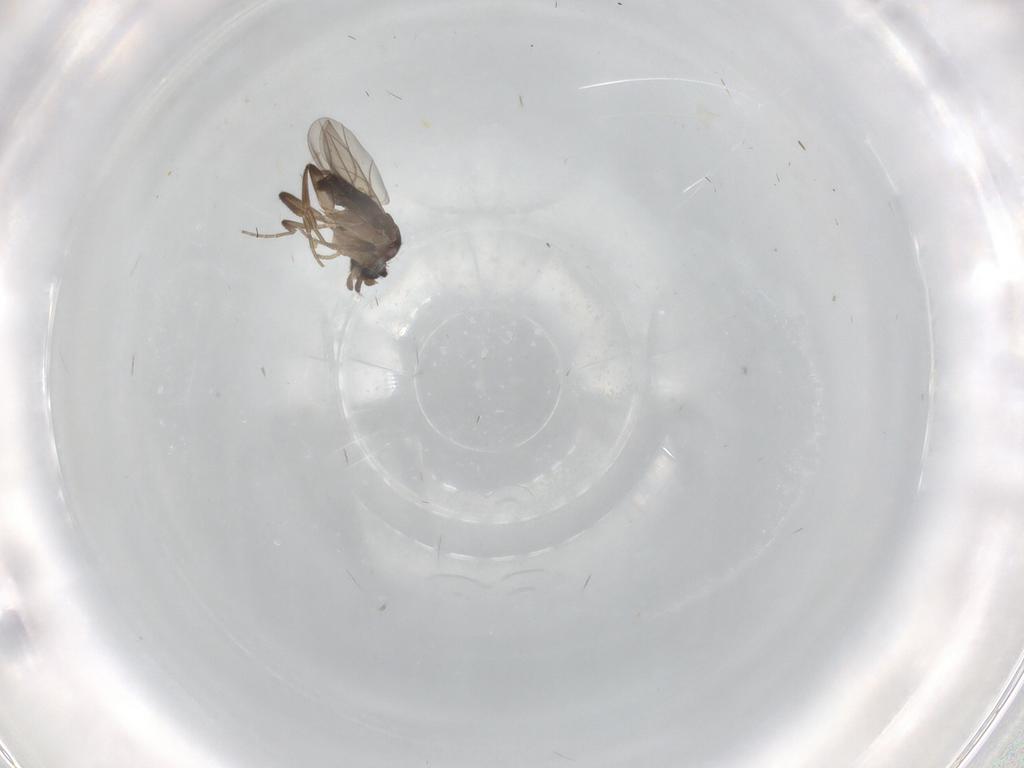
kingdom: Animalia
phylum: Arthropoda
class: Insecta
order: Diptera
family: Phoridae
